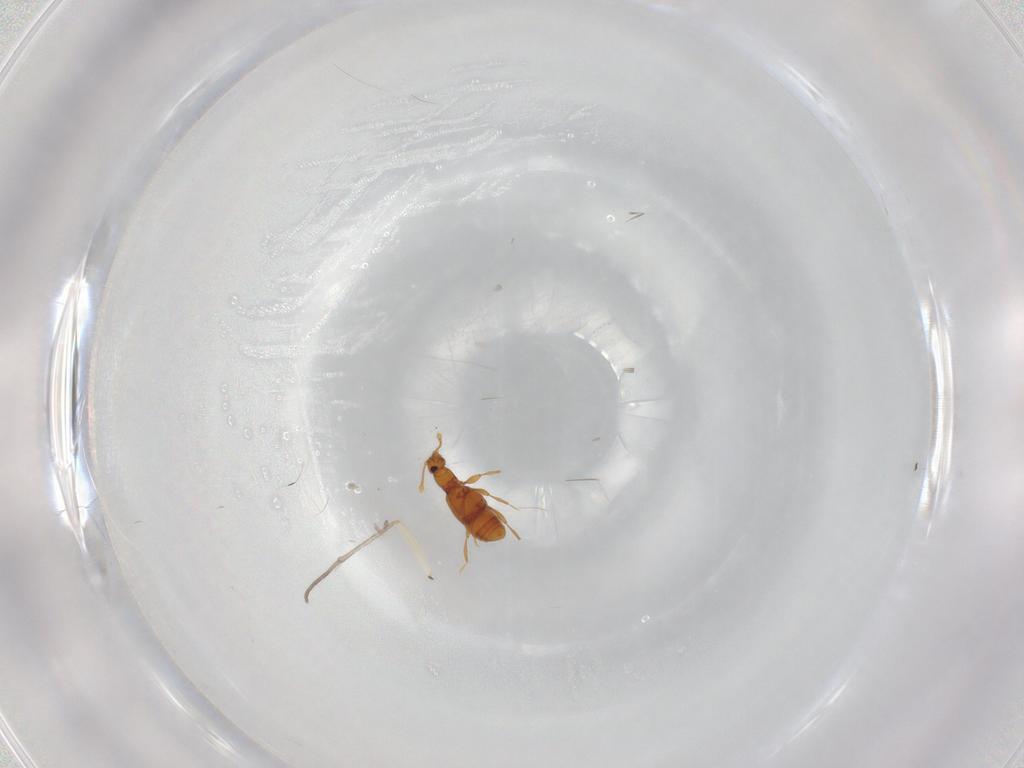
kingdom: Animalia
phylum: Arthropoda
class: Insecta
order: Coleoptera
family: Staphylinidae
